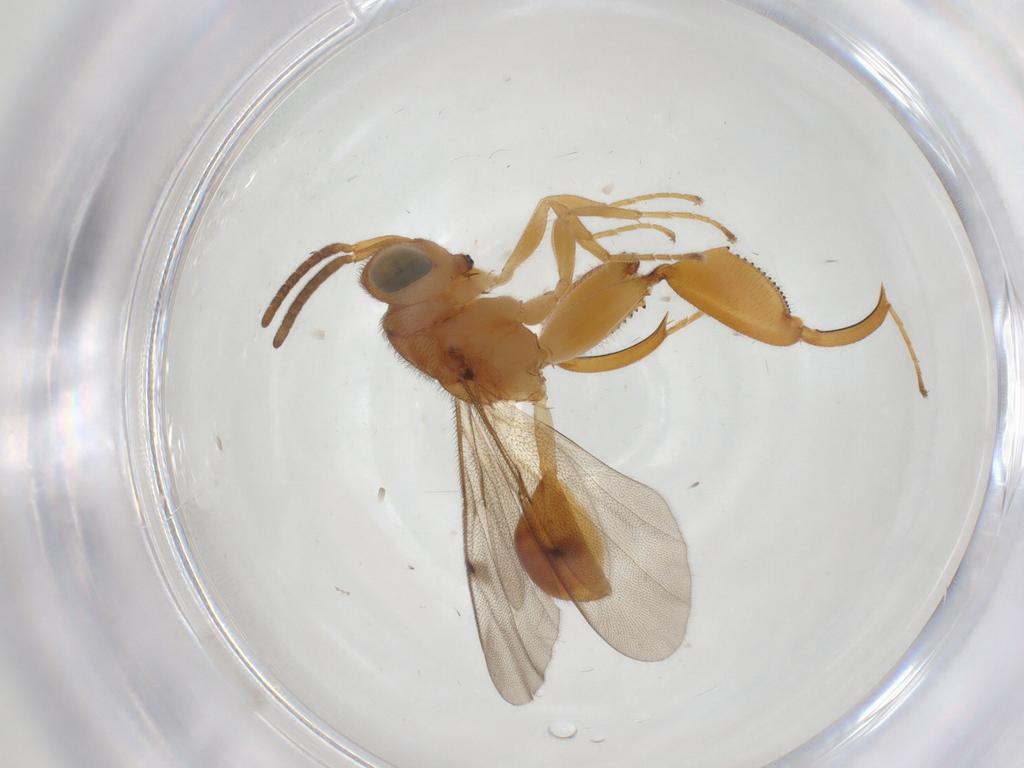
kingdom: Animalia
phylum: Arthropoda
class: Insecta
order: Hymenoptera
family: Chalcididae
